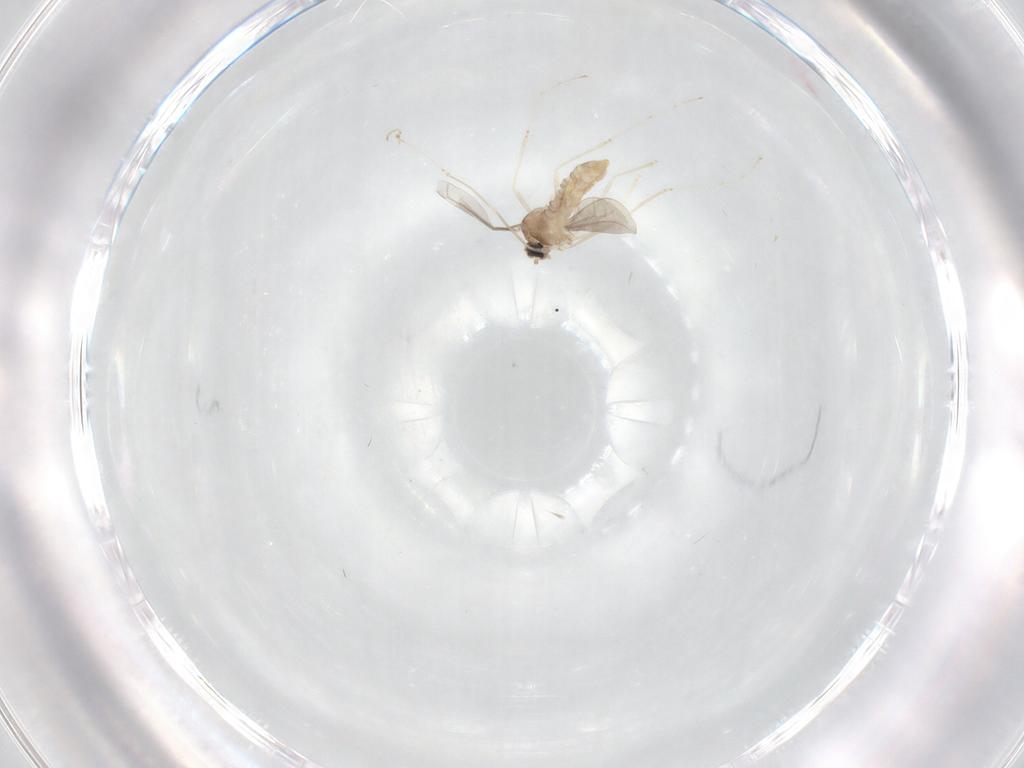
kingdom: Animalia
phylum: Arthropoda
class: Insecta
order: Diptera
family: Cecidomyiidae
